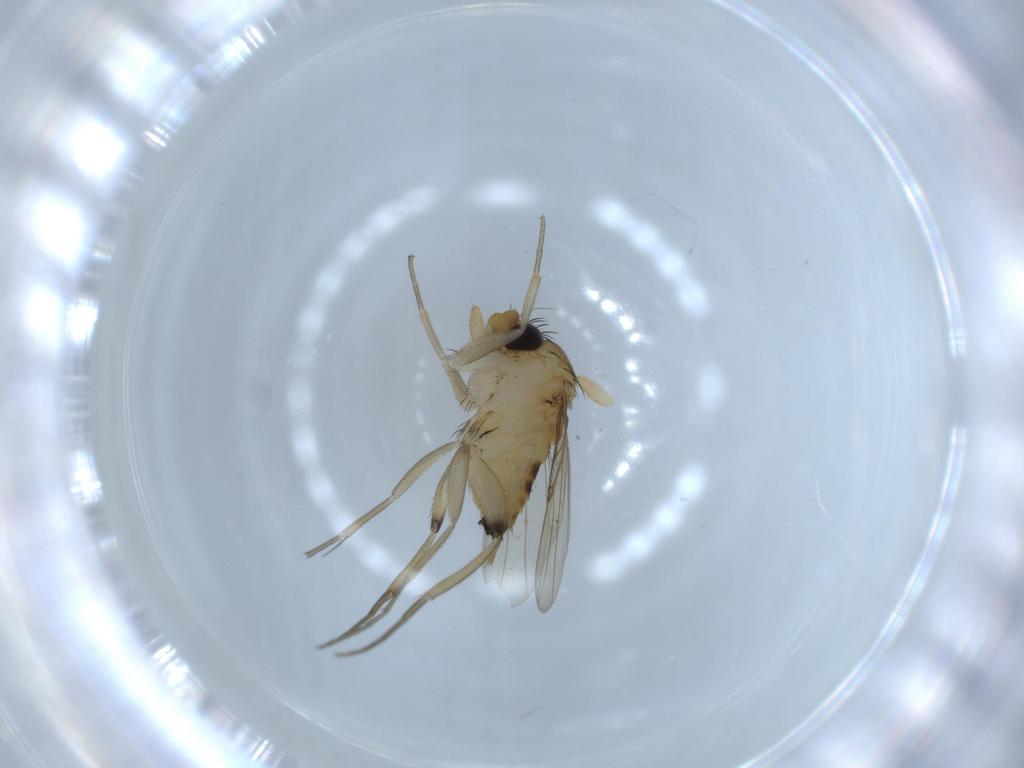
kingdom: Animalia
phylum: Arthropoda
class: Insecta
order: Diptera
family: Phoridae
